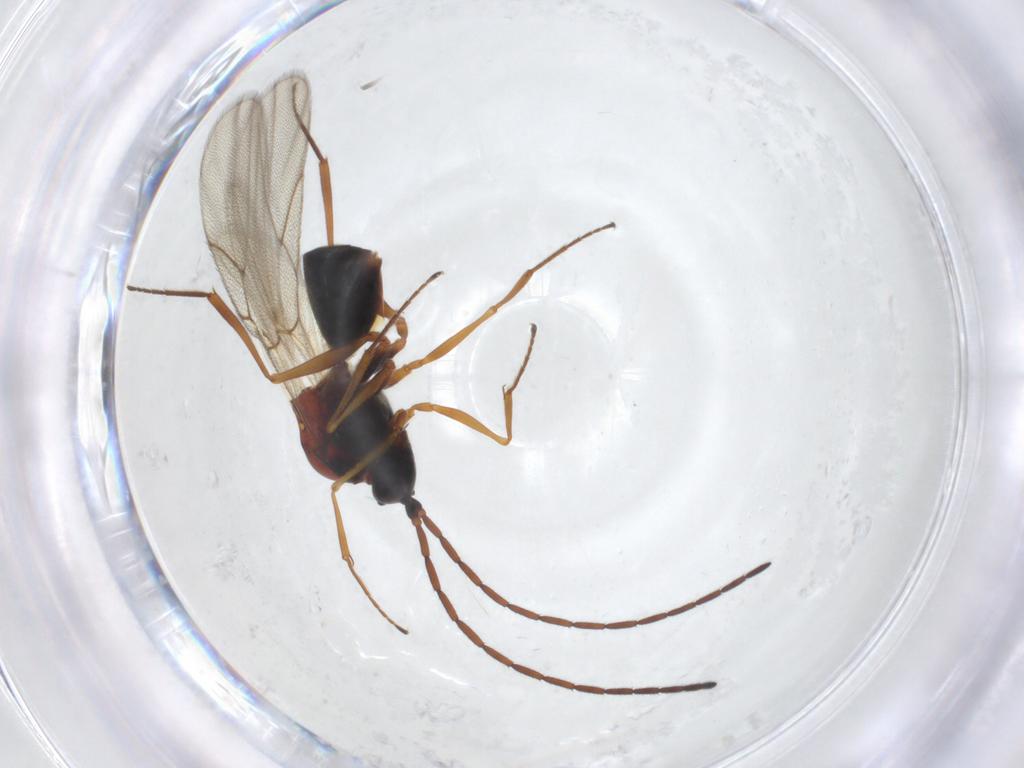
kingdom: Animalia
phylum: Arthropoda
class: Insecta
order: Hymenoptera
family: Figitidae
